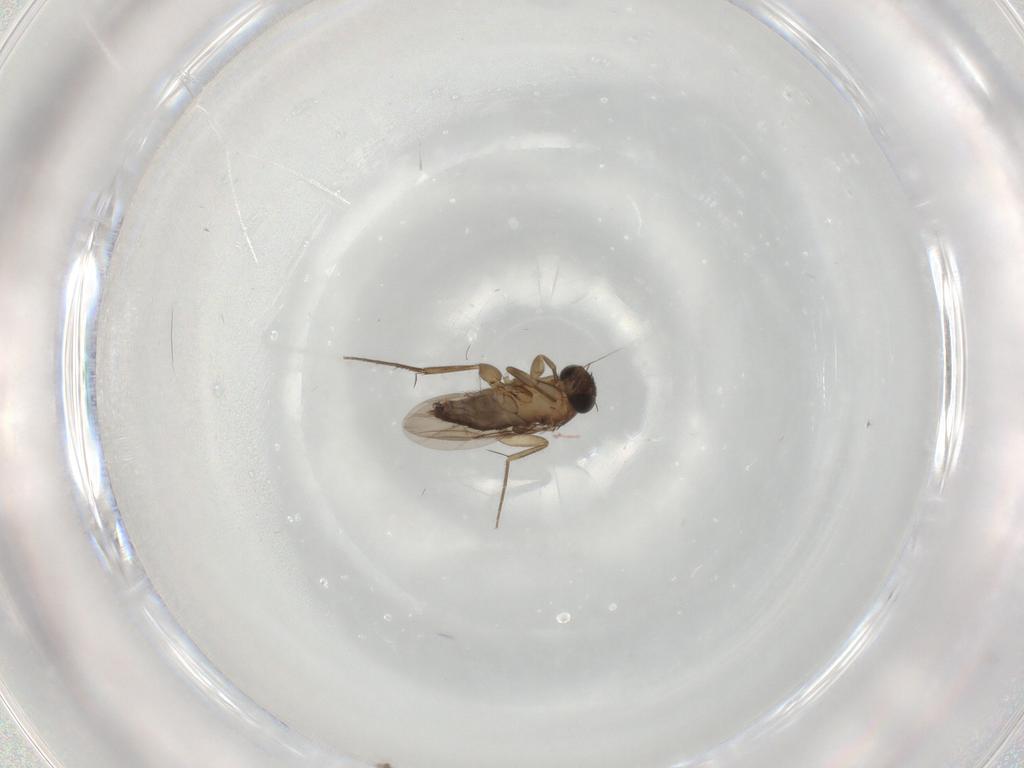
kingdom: Animalia
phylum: Arthropoda
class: Insecta
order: Diptera
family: Phoridae
